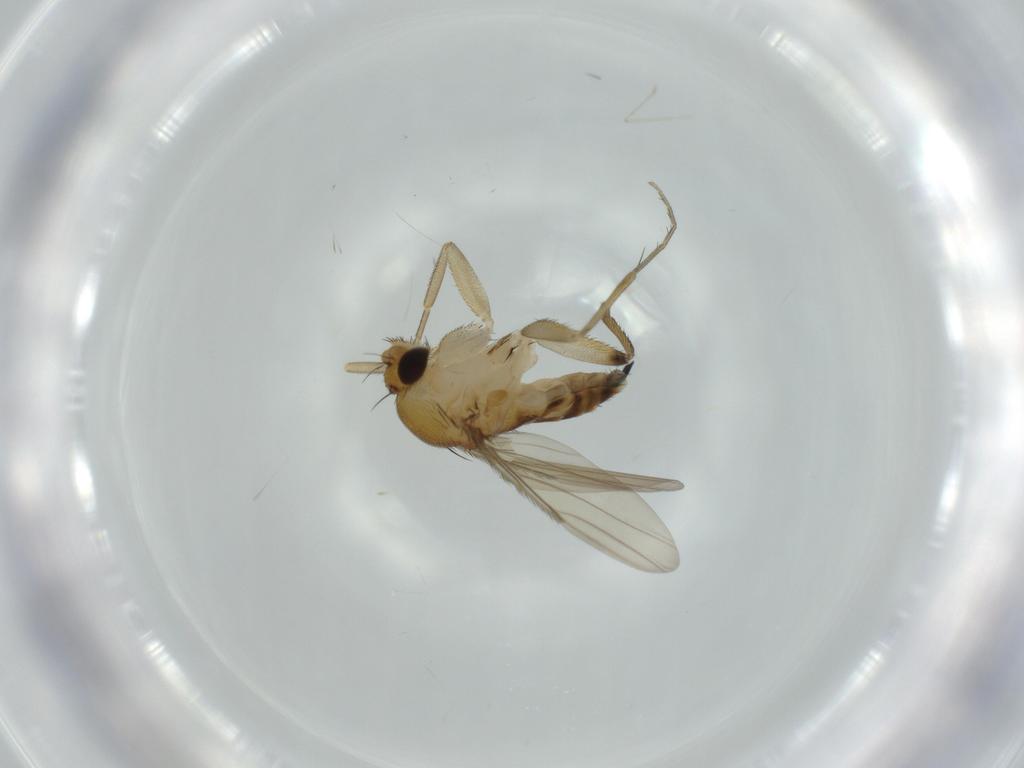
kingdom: Animalia
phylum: Arthropoda
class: Insecta
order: Diptera
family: Phoridae
